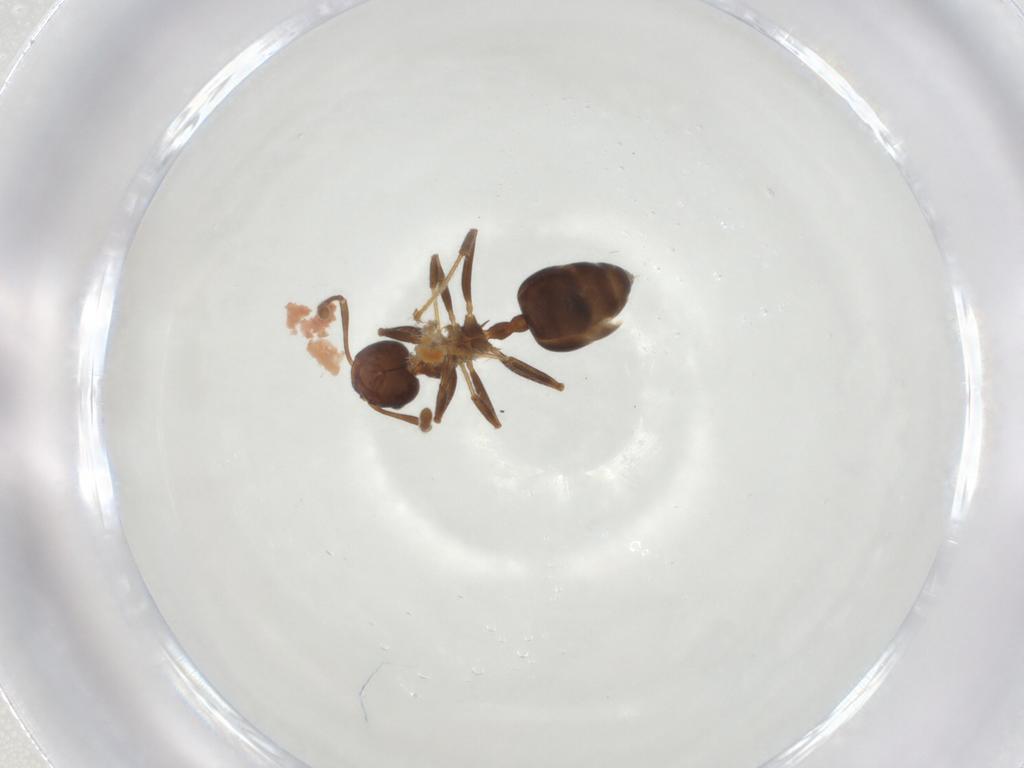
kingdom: Animalia
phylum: Arthropoda
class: Insecta
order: Hymenoptera
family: Formicidae
